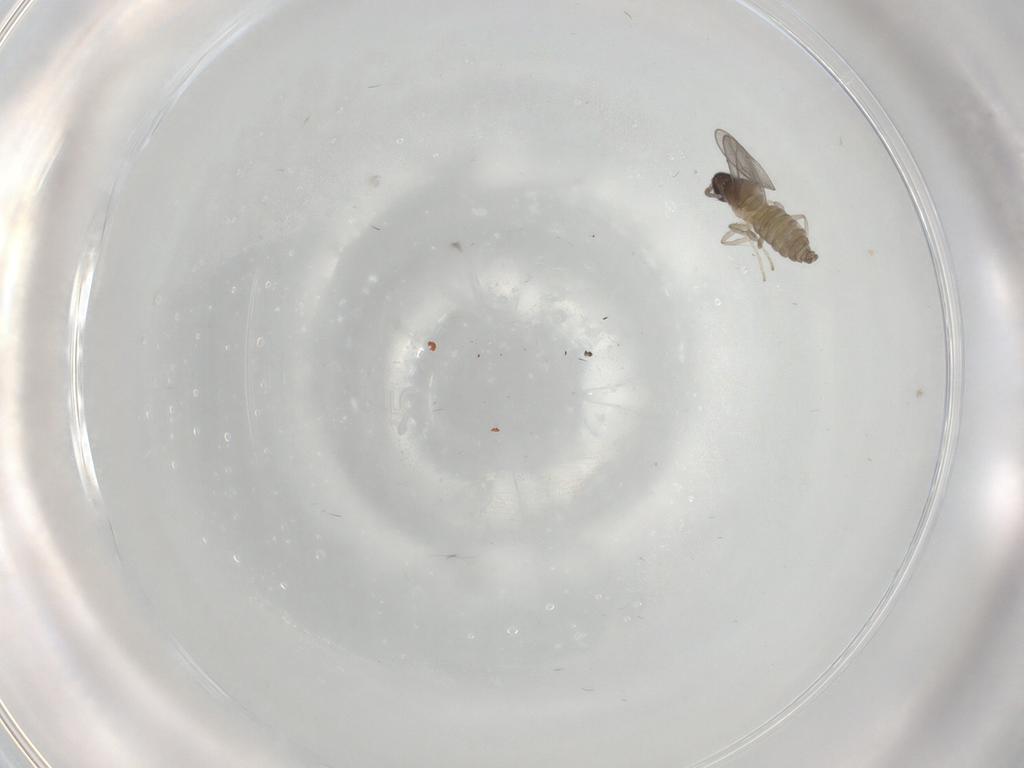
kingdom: Animalia
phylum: Arthropoda
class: Insecta
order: Diptera
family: Cecidomyiidae
